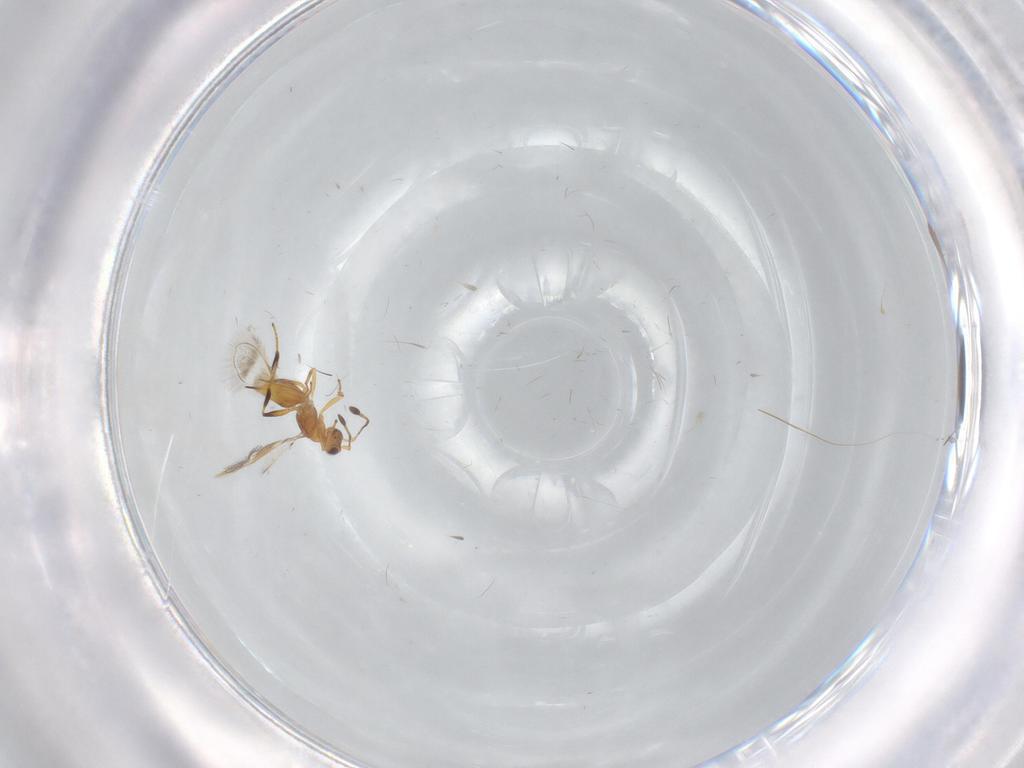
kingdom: Animalia
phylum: Arthropoda
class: Insecta
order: Hymenoptera
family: Mymaridae
